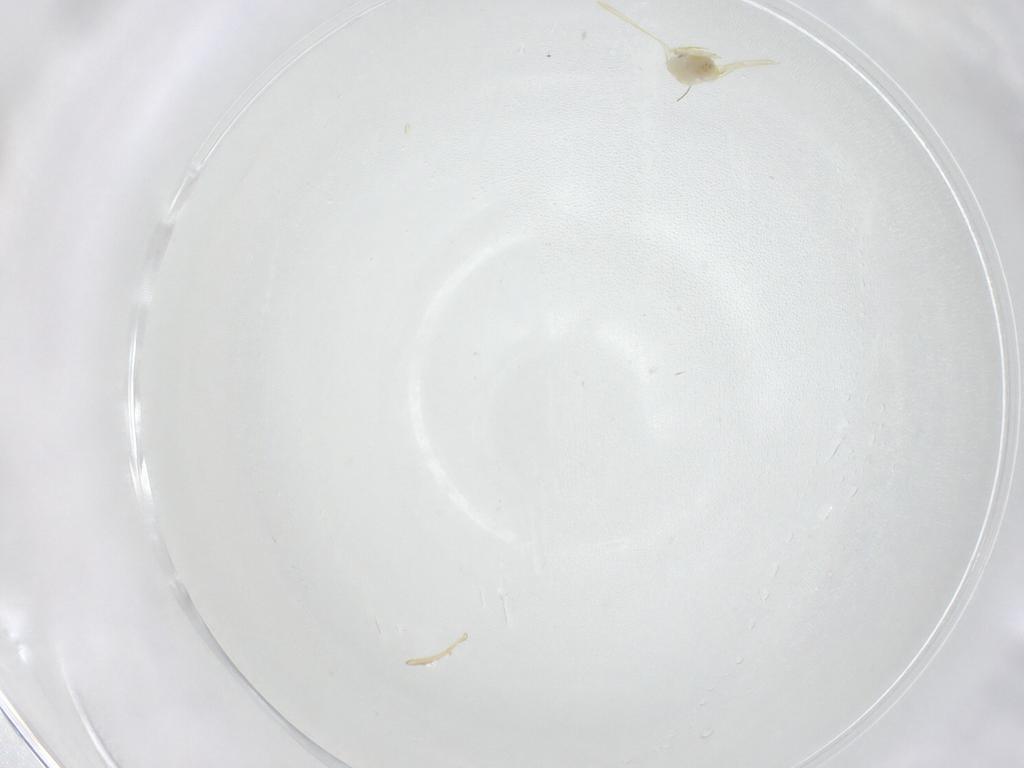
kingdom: Animalia
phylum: Arthropoda
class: Insecta
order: Hemiptera
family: Aleyrodidae
